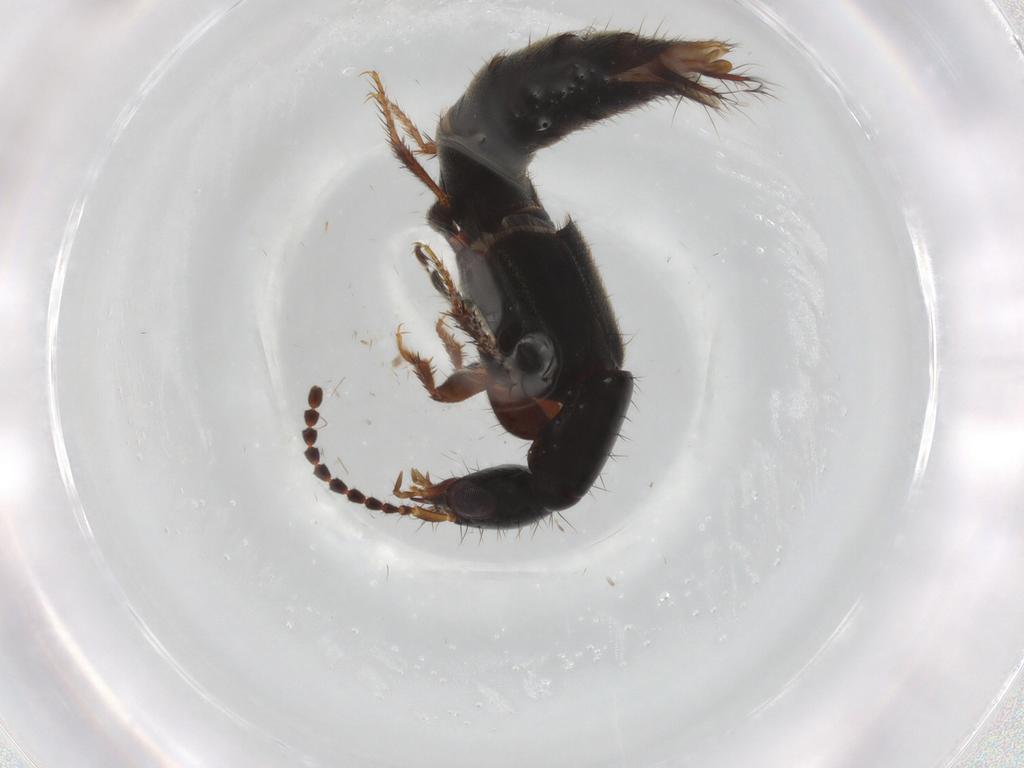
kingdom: Animalia
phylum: Arthropoda
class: Insecta
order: Coleoptera
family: Staphylinidae
